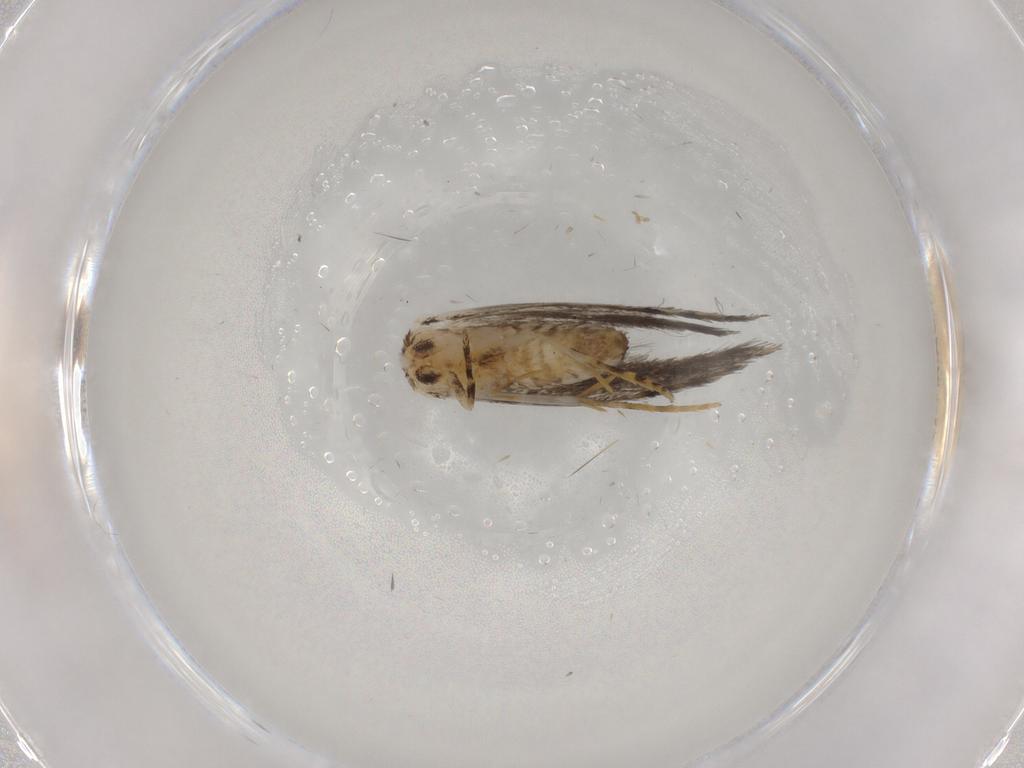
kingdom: Animalia
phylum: Arthropoda
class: Insecta
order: Lepidoptera
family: Tineidae
